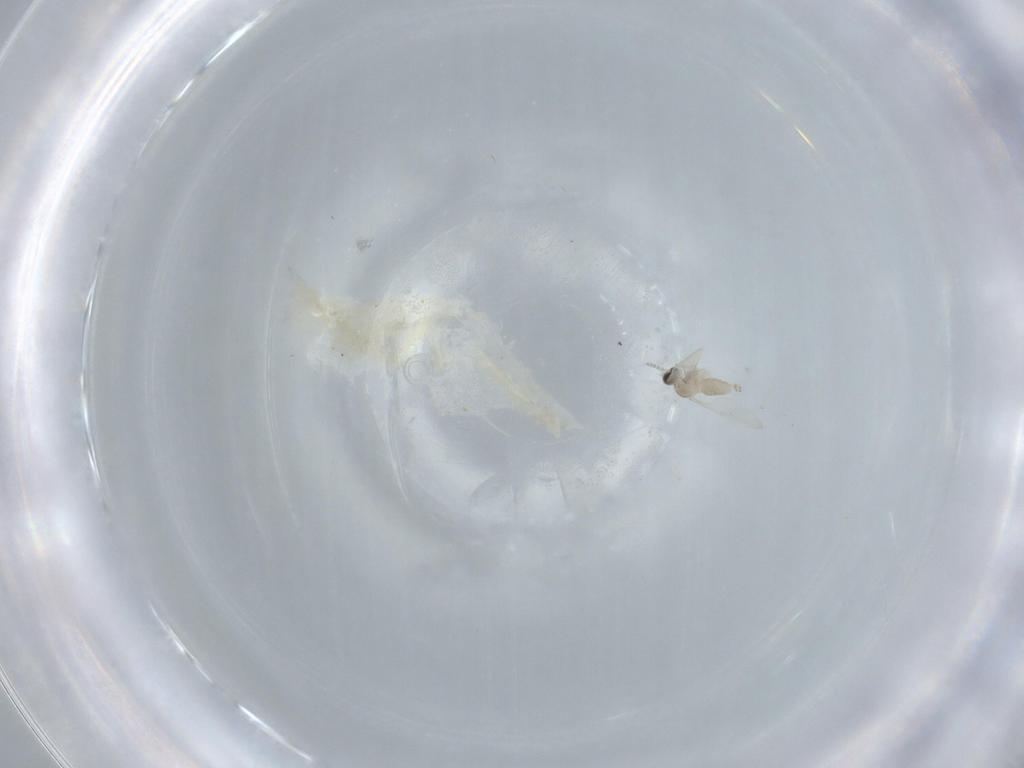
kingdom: Animalia
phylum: Arthropoda
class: Insecta
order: Diptera
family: Cecidomyiidae
